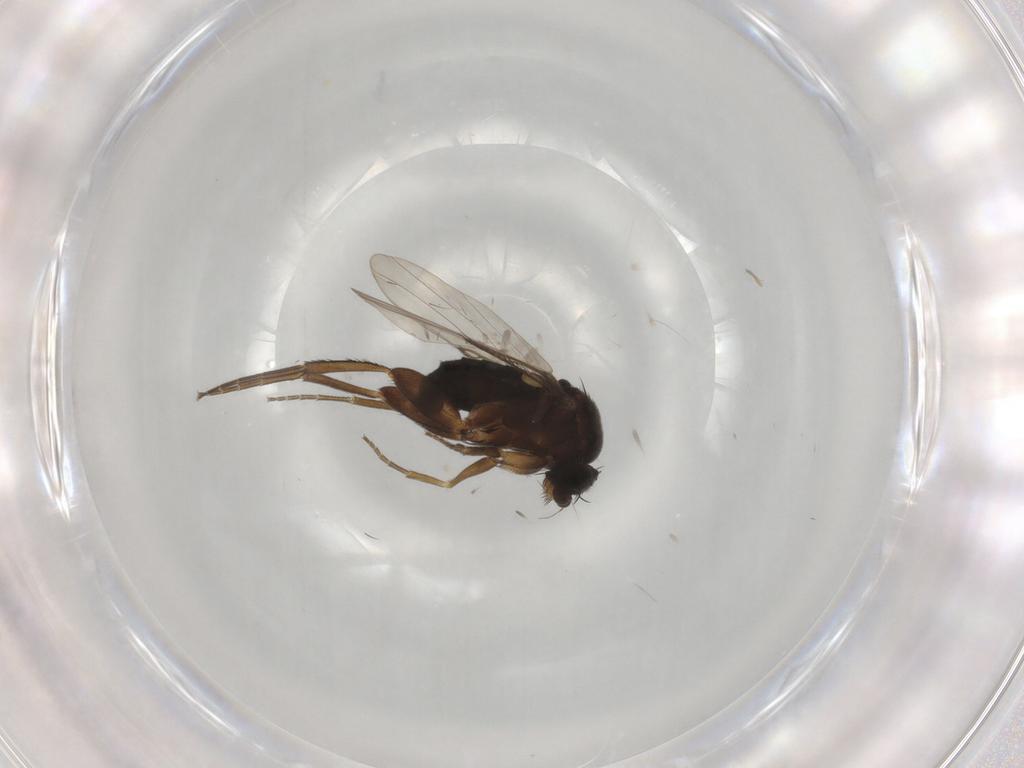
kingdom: Animalia
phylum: Arthropoda
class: Insecta
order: Diptera
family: Phoridae
